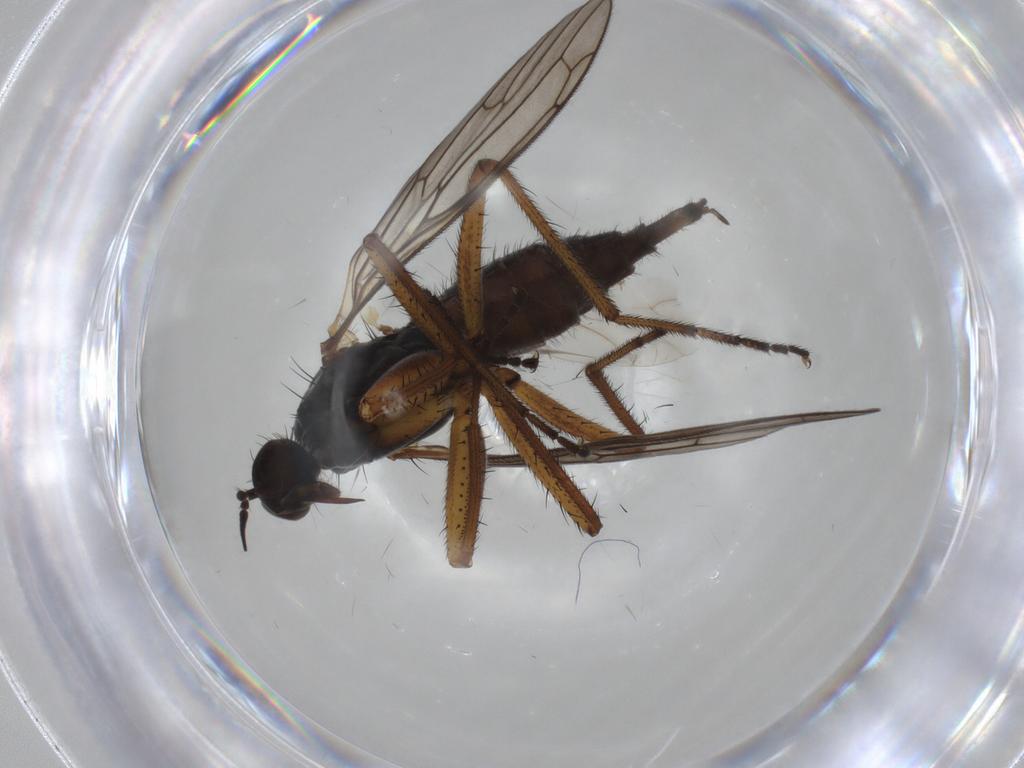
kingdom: Animalia
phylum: Arthropoda
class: Insecta
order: Diptera
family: Empididae
